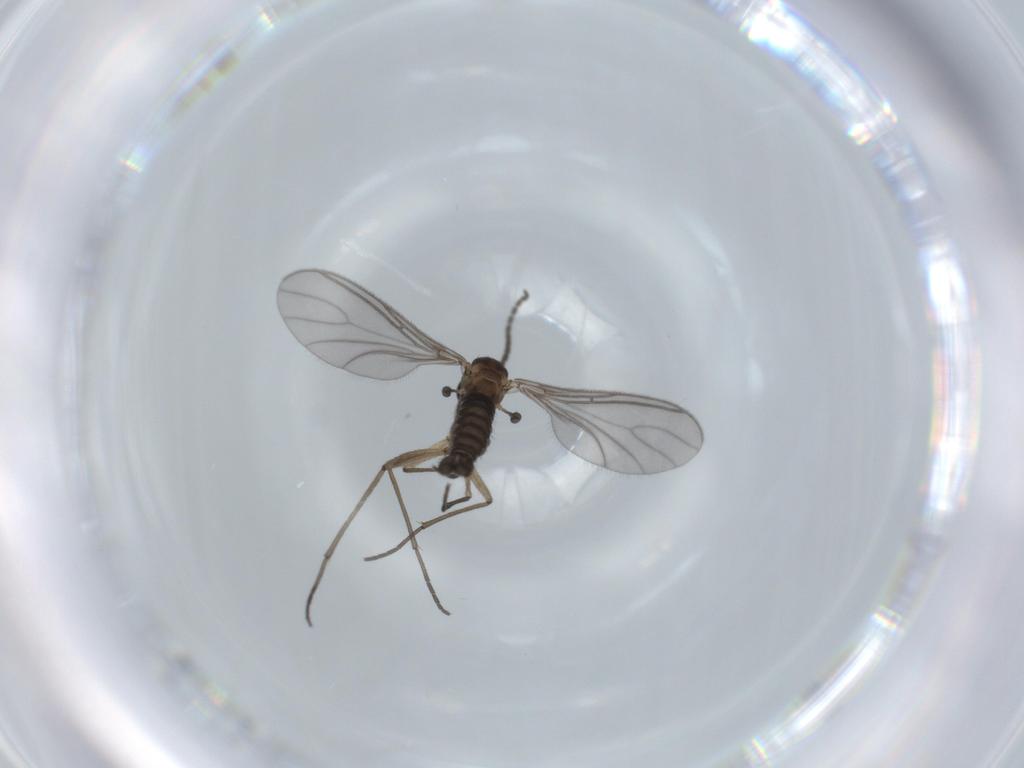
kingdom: Animalia
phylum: Arthropoda
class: Insecta
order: Diptera
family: Sciaridae
